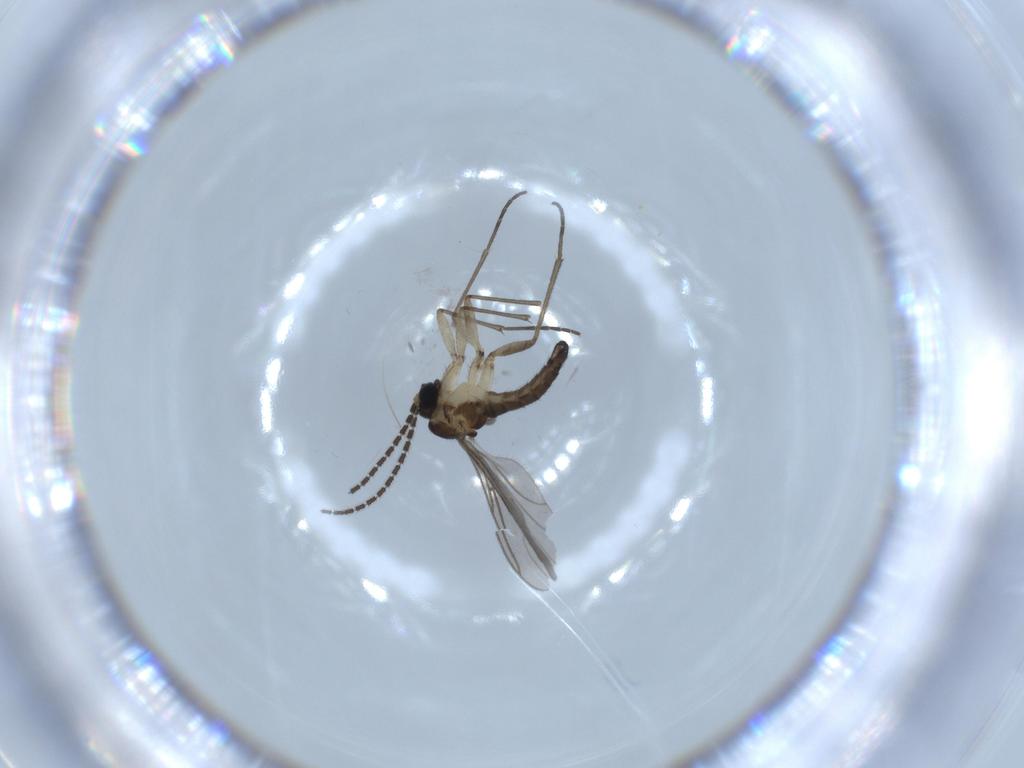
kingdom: Animalia
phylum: Arthropoda
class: Insecta
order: Diptera
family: Sciaridae
